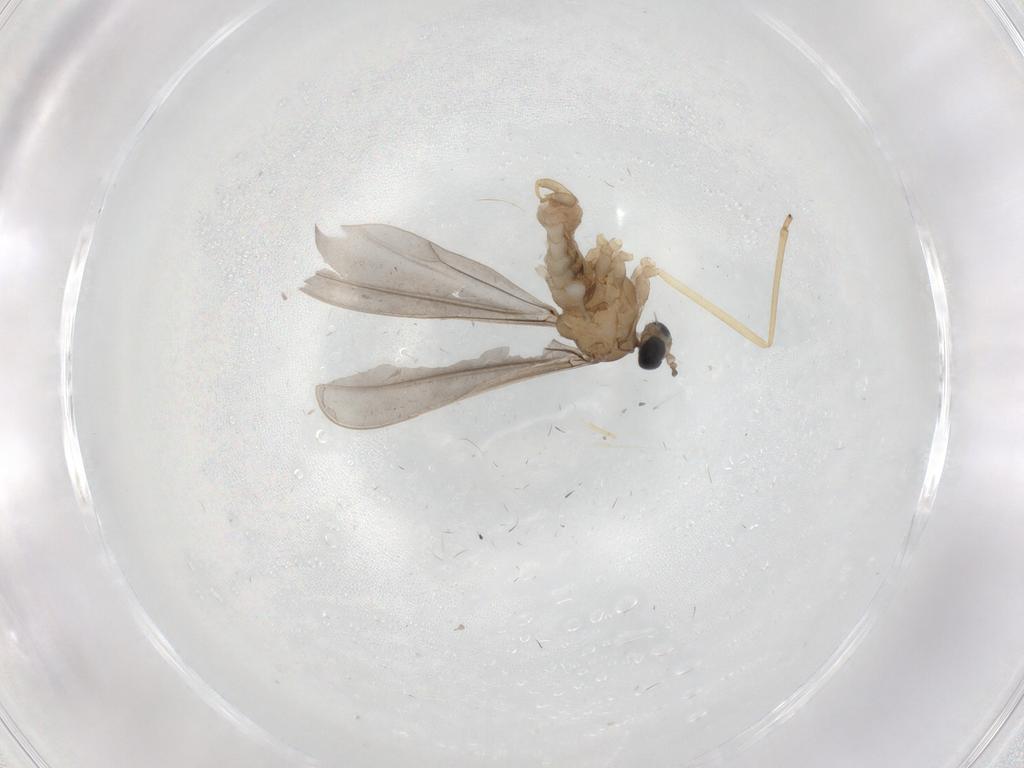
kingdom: Animalia
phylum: Arthropoda
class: Insecta
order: Diptera
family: Cecidomyiidae
